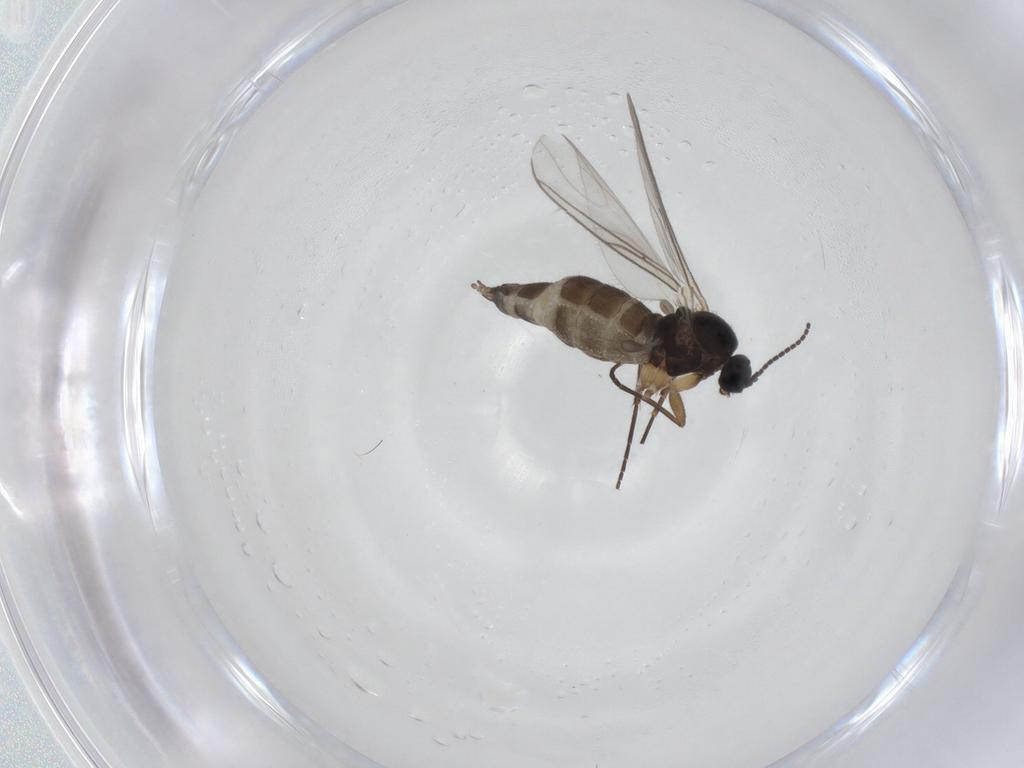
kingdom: Animalia
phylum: Arthropoda
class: Insecta
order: Diptera
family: Sciaridae
